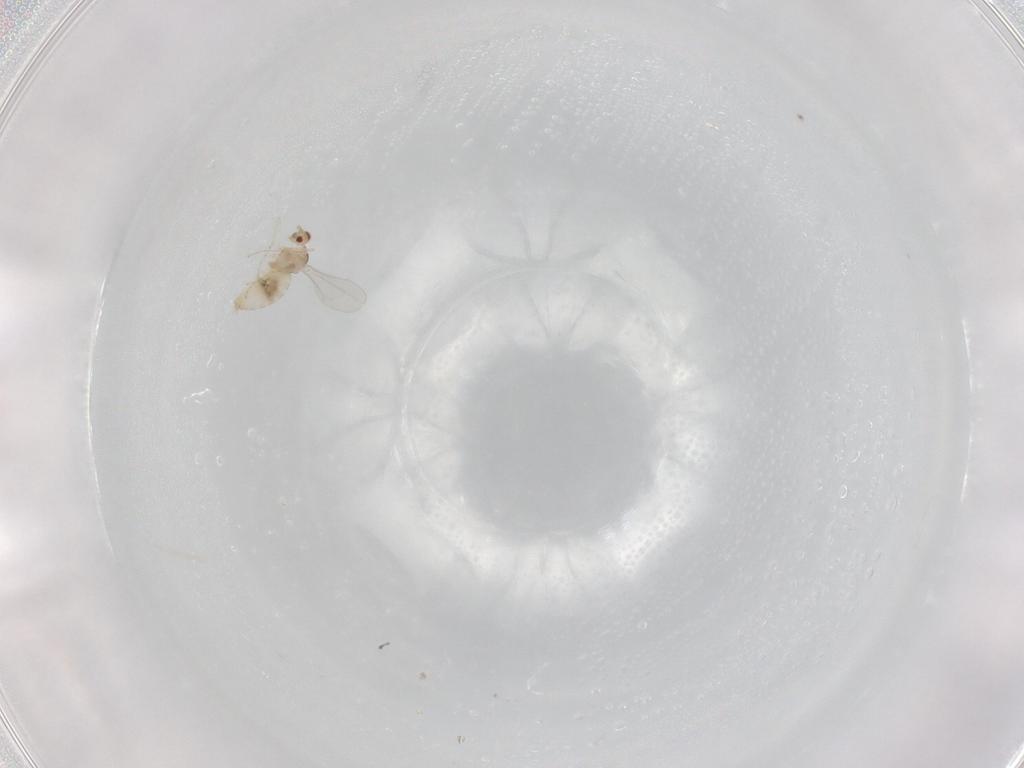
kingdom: Animalia
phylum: Arthropoda
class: Insecta
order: Diptera
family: Cecidomyiidae
